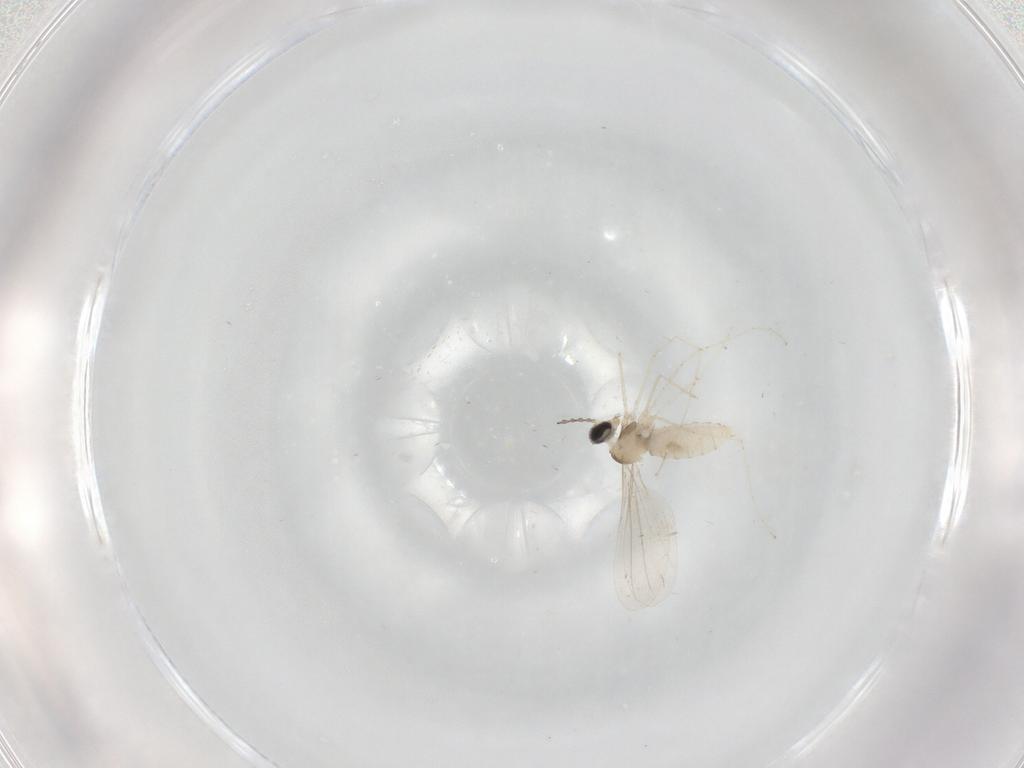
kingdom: Animalia
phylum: Arthropoda
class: Insecta
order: Diptera
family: Cecidomyiidae
